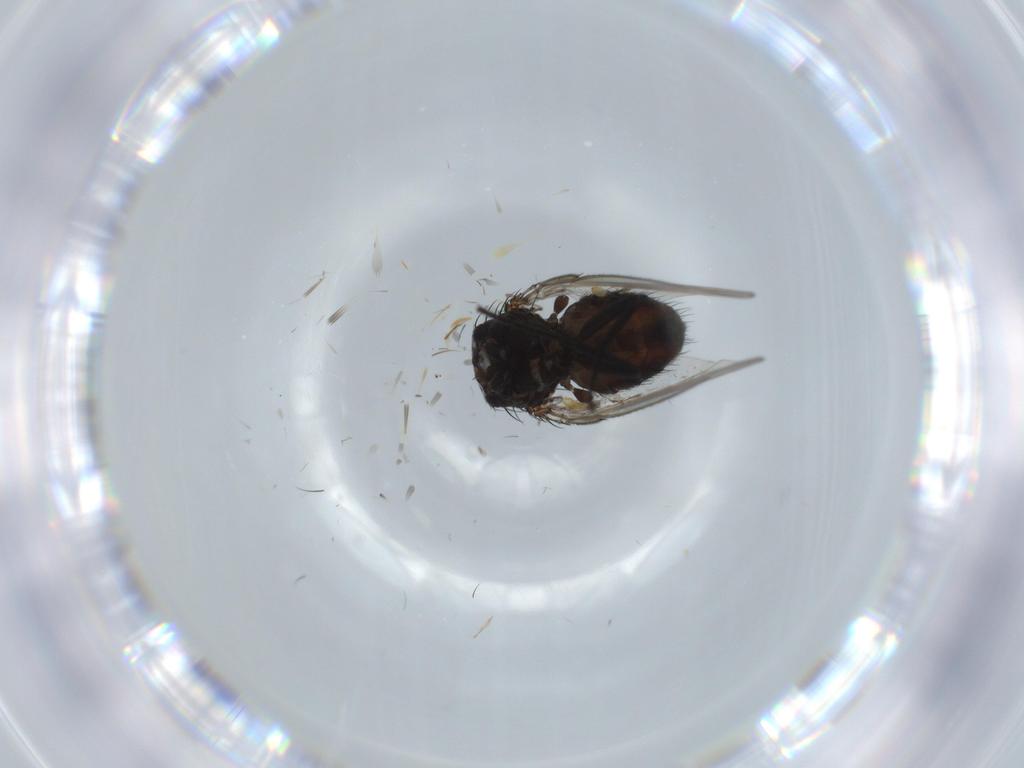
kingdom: Animalia
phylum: Arthropoda
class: Insecta
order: Diptera
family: Milichiidae
